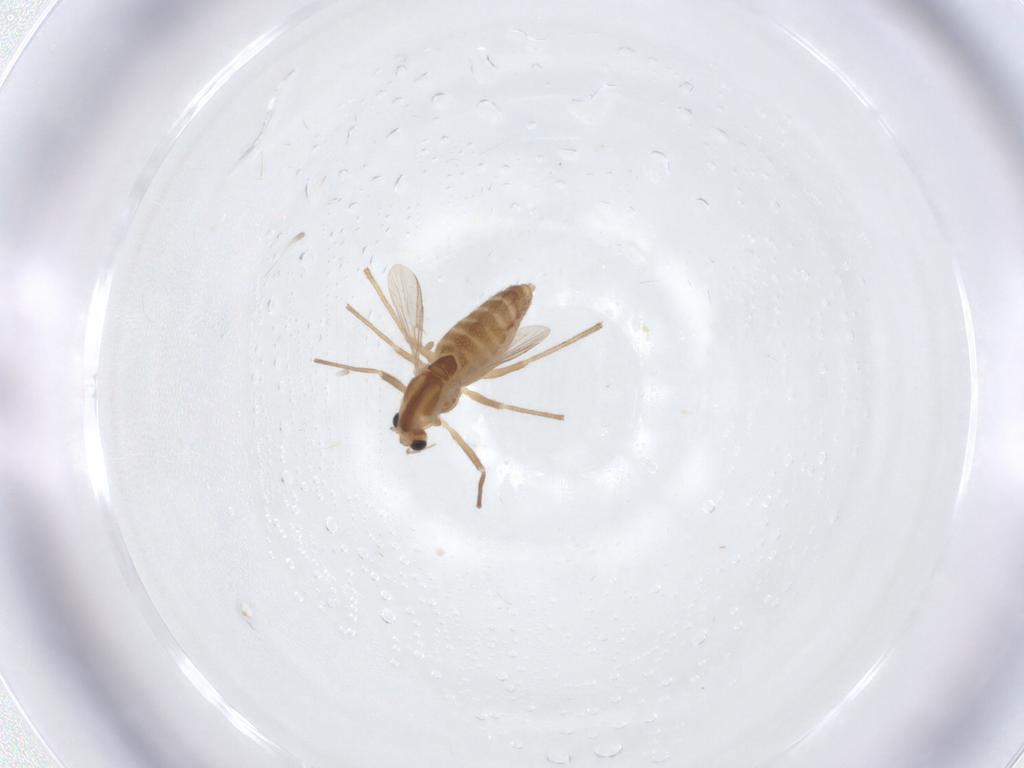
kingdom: Animalia
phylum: Arthropoda
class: Insecta
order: Diptera
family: Chironomidae
